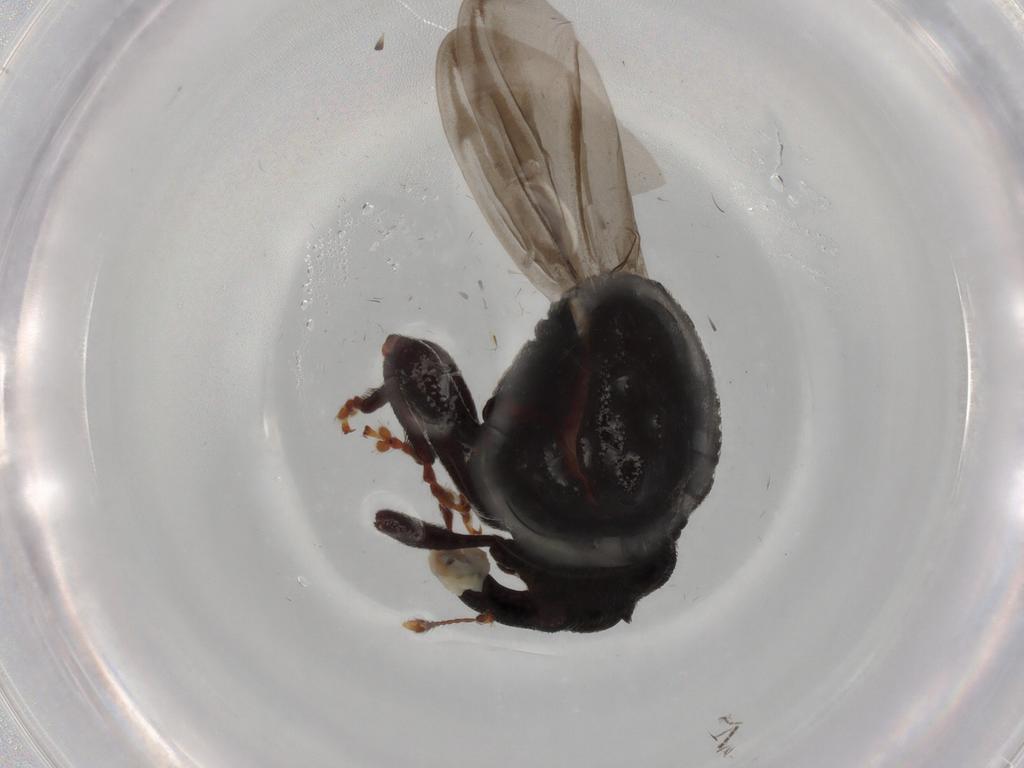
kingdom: Animalia
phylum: Arthropoda
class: Insecta
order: Coleoptera
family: Curculionidae
